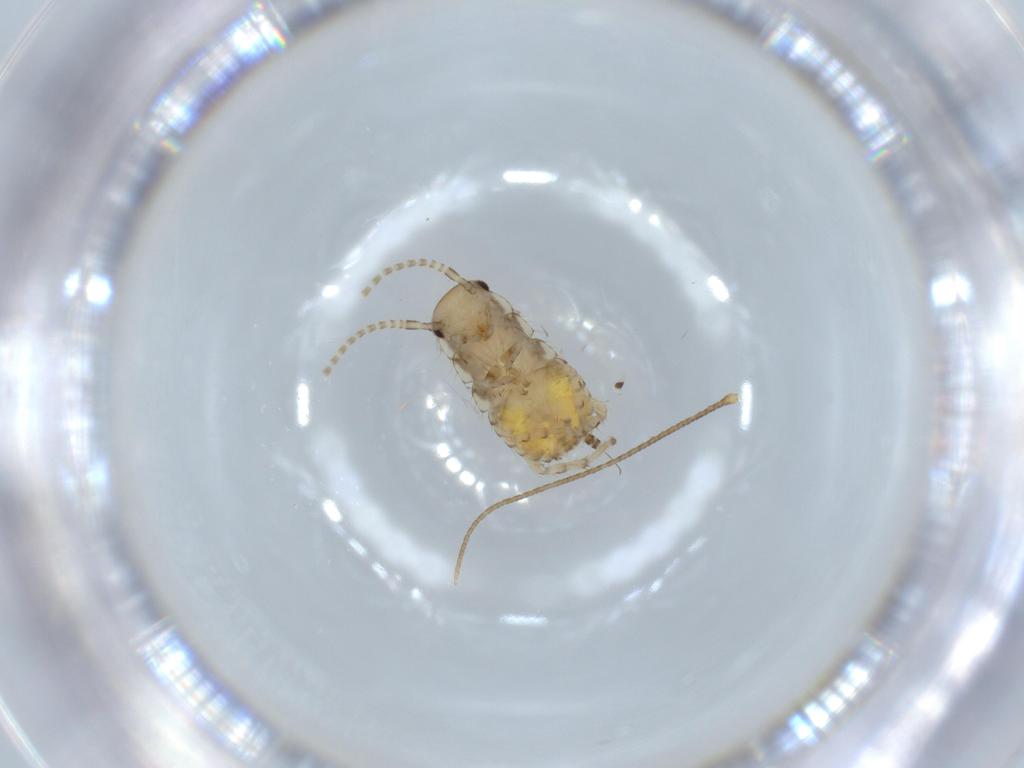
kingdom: Animalia
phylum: Arthropoda
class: Insecta
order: Blattodea
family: Ectobiidae
